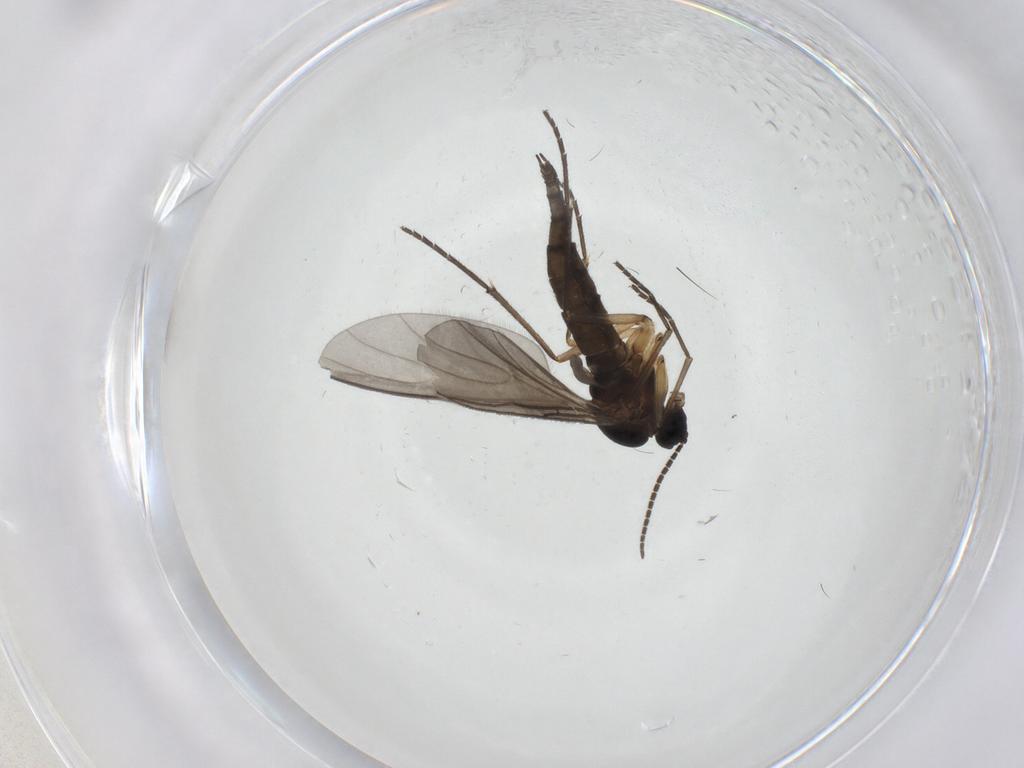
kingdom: Animalia
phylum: Arthropoda
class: Insecta
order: Diptera
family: Sciaridae
